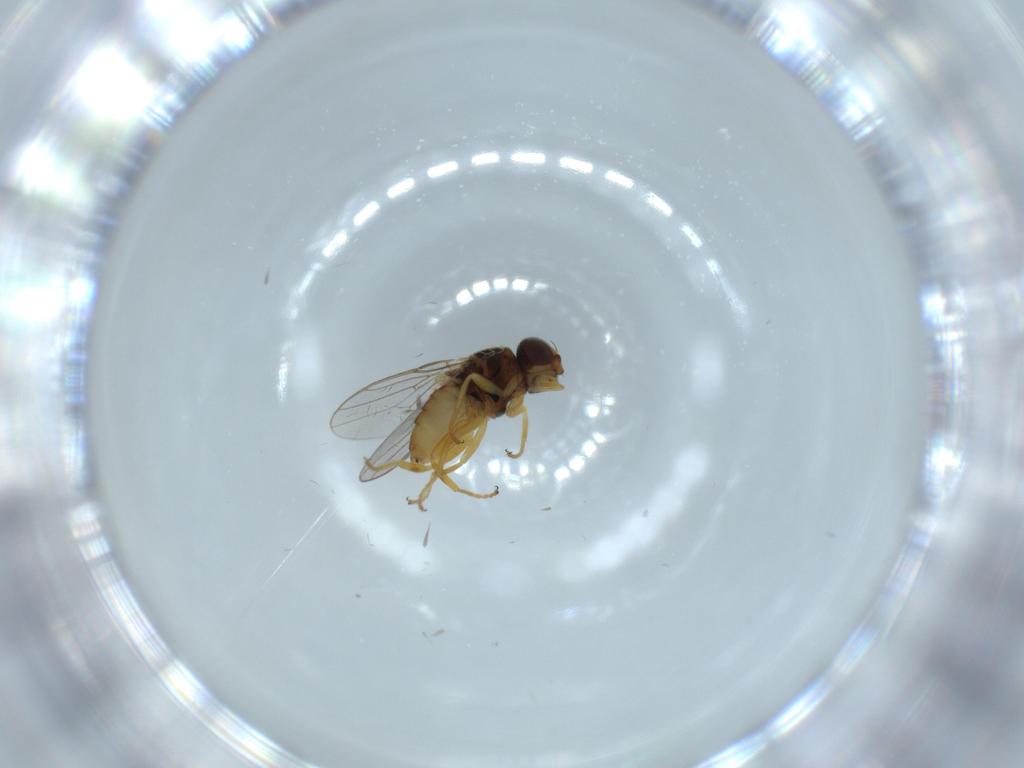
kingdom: Animalia
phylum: Arthropoda
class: Insecta
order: Diptera
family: Chloropidae
